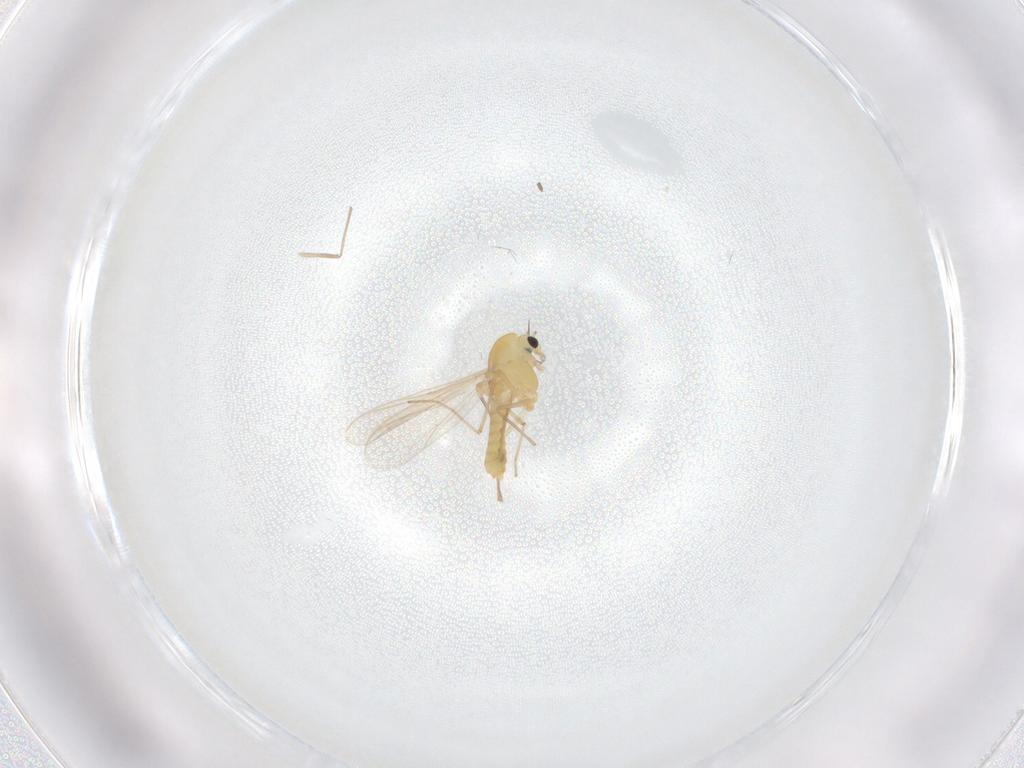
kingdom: Animalia
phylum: Arthropoda
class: Insecta
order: Diptera
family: Chironomidae
